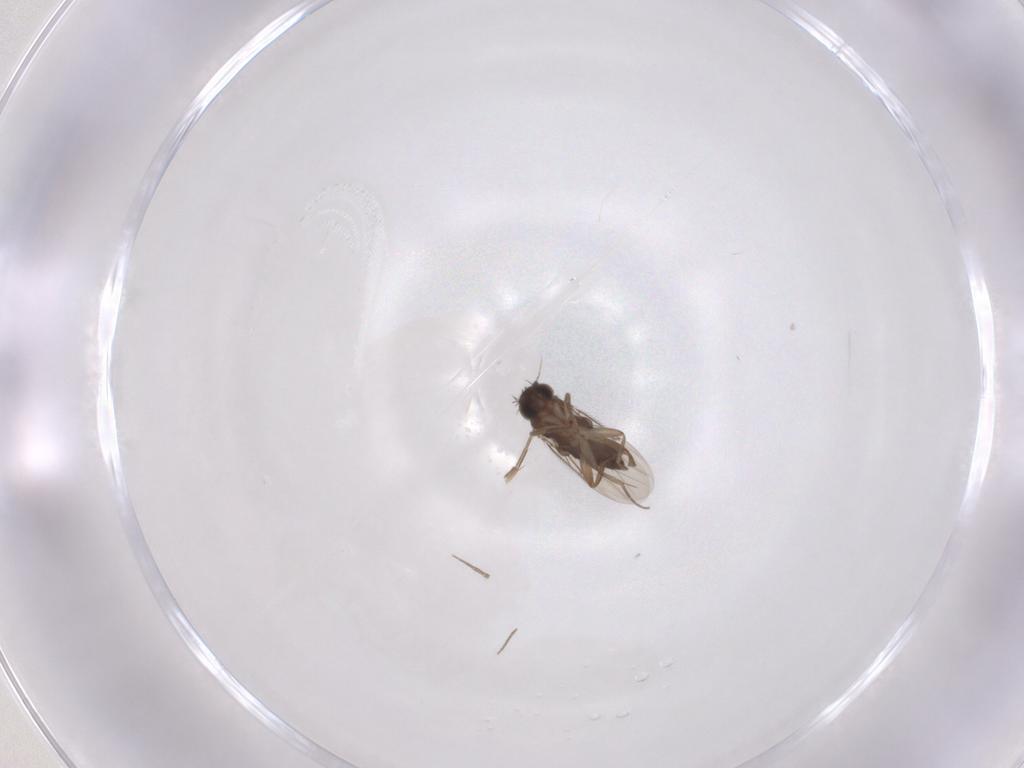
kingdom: Animalia
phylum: Arthropoda
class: Insecta
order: Diptera
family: Phoridae
